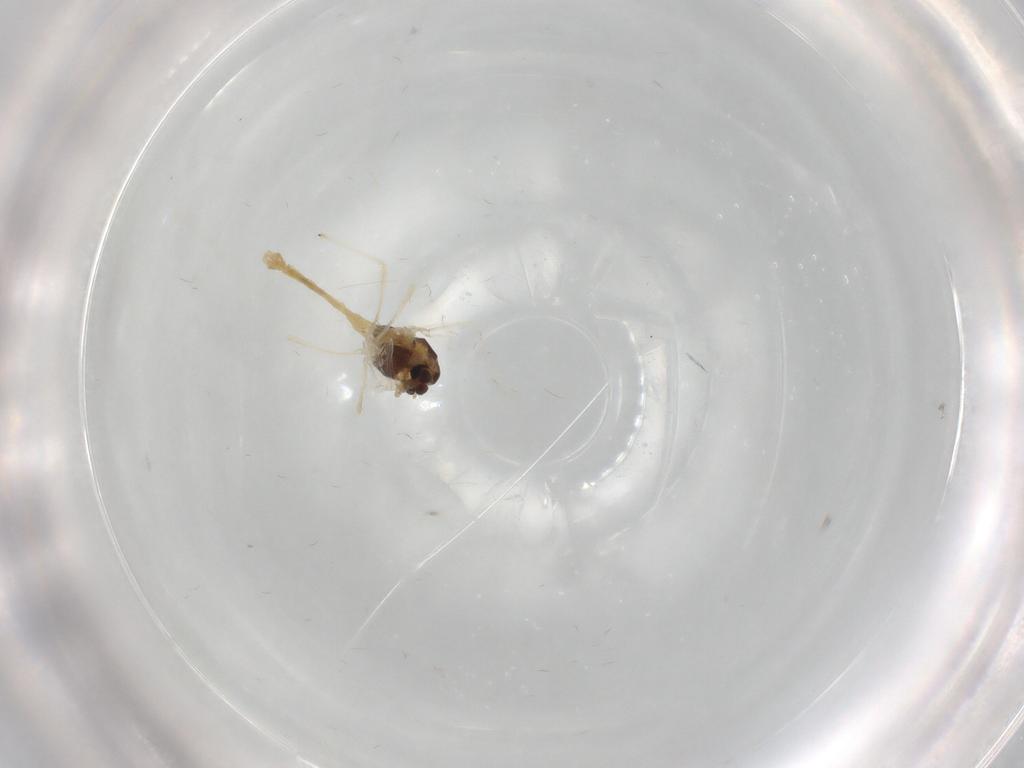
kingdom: Animalia
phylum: Arthropoda
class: Insecta
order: Diptera
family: Chironomidae
